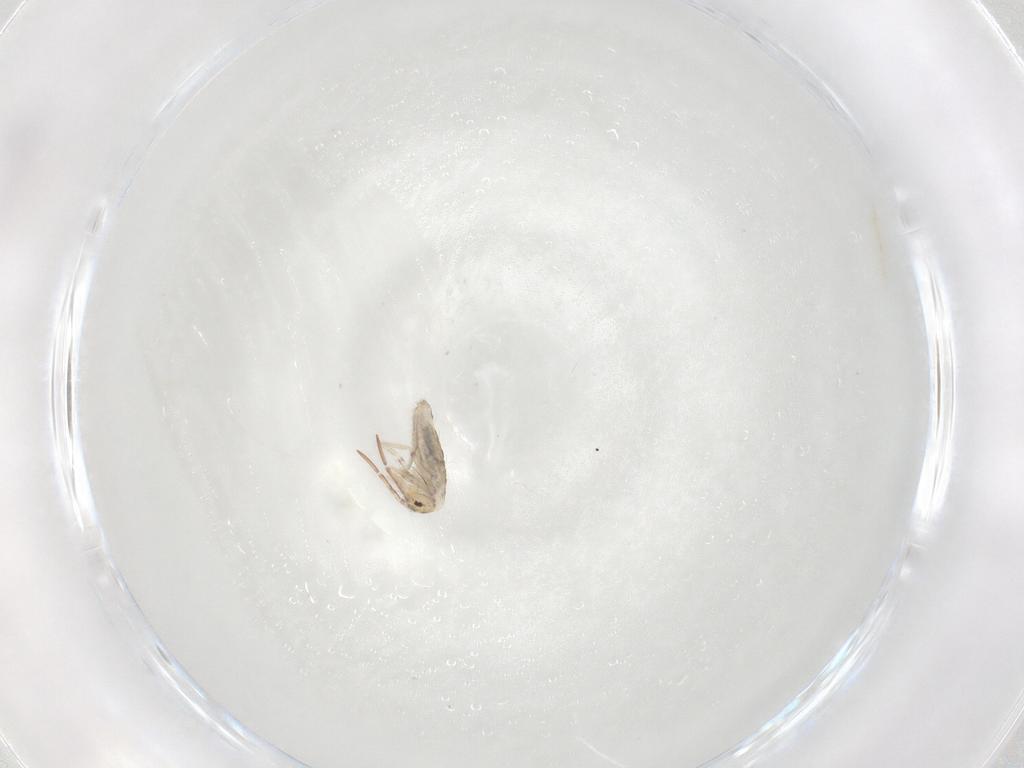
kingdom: Animalia
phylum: Arthropoda
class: Collembola
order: Entomobryomorpha
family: Entomobryidae
